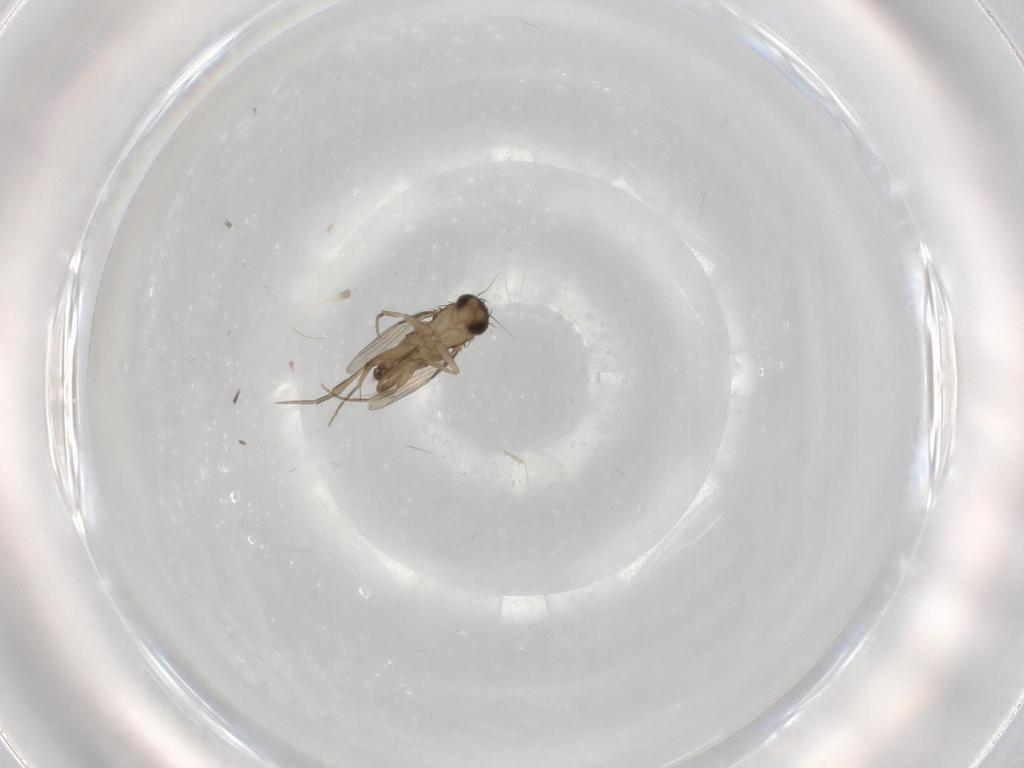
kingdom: Animalia
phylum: Arthropoda
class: Insecta
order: Diptera
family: Phoridae
